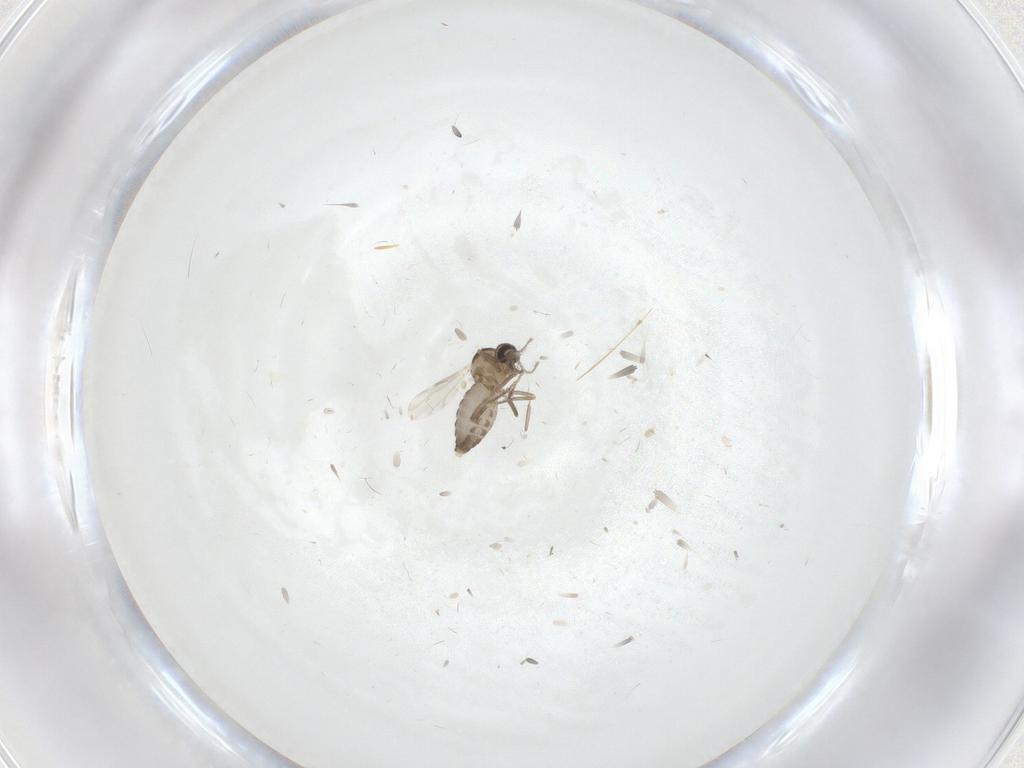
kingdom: Animalia
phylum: Arthropoda
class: Insecta
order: Diptera
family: Ceratopogonidae
